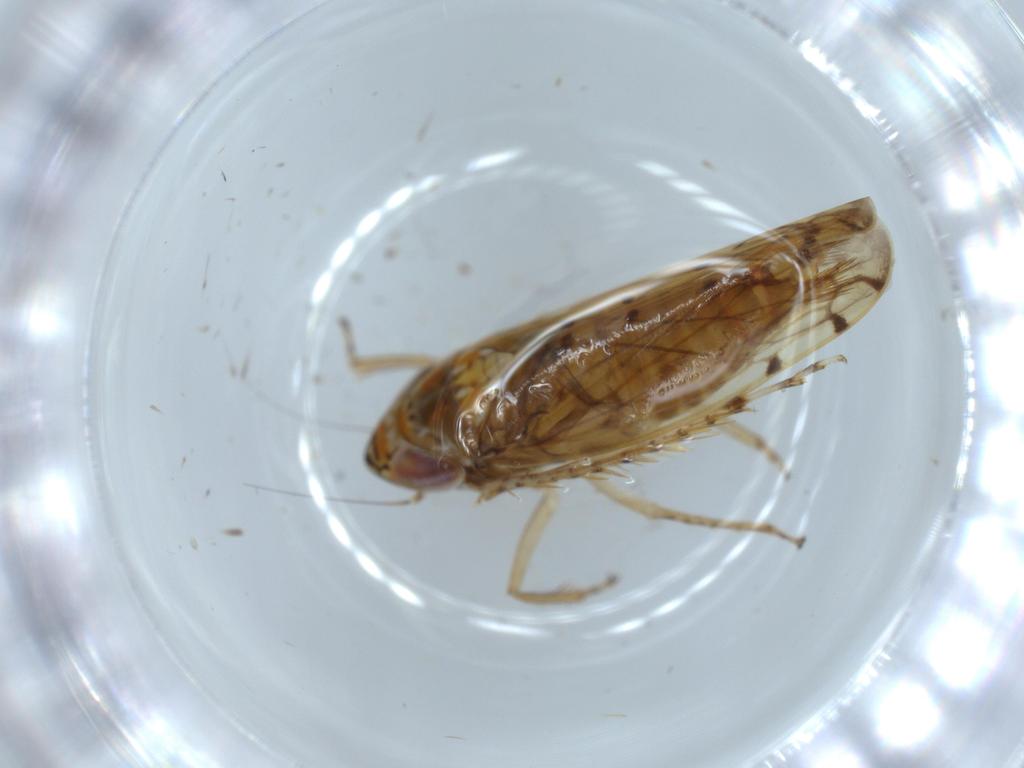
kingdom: Animalia
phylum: Arthropoda
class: Insecta
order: Hemiptera
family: Cicadellidae
